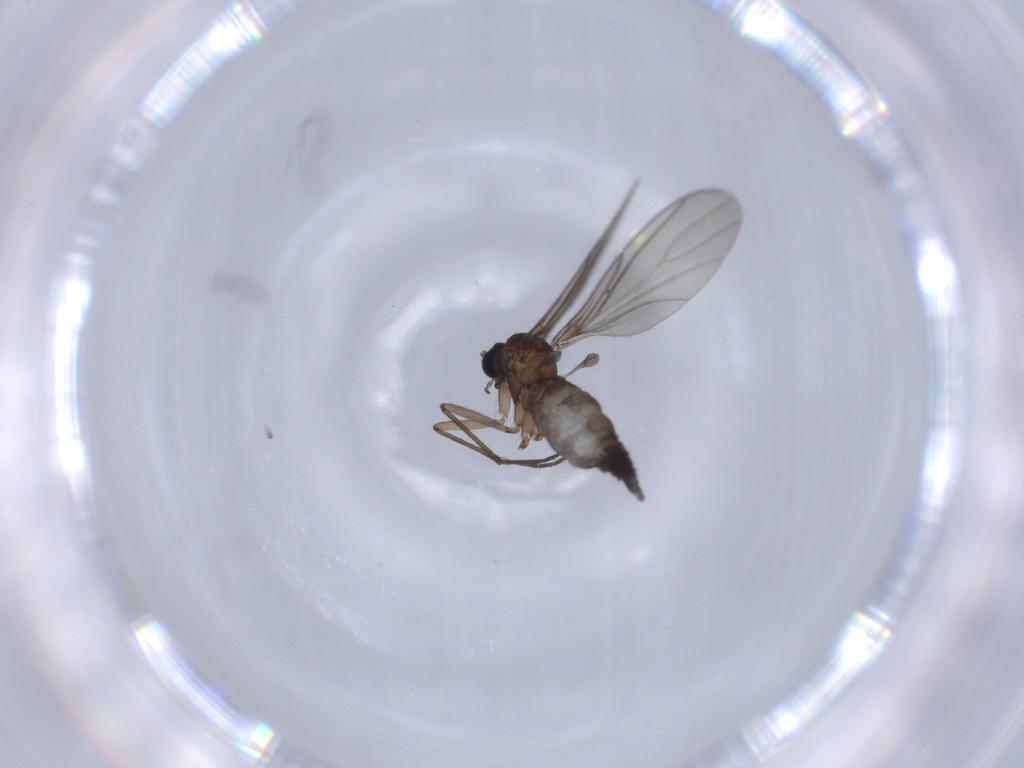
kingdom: Animalia
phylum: Arthropoda
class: Insecta
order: Diptera
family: Sciaridae
